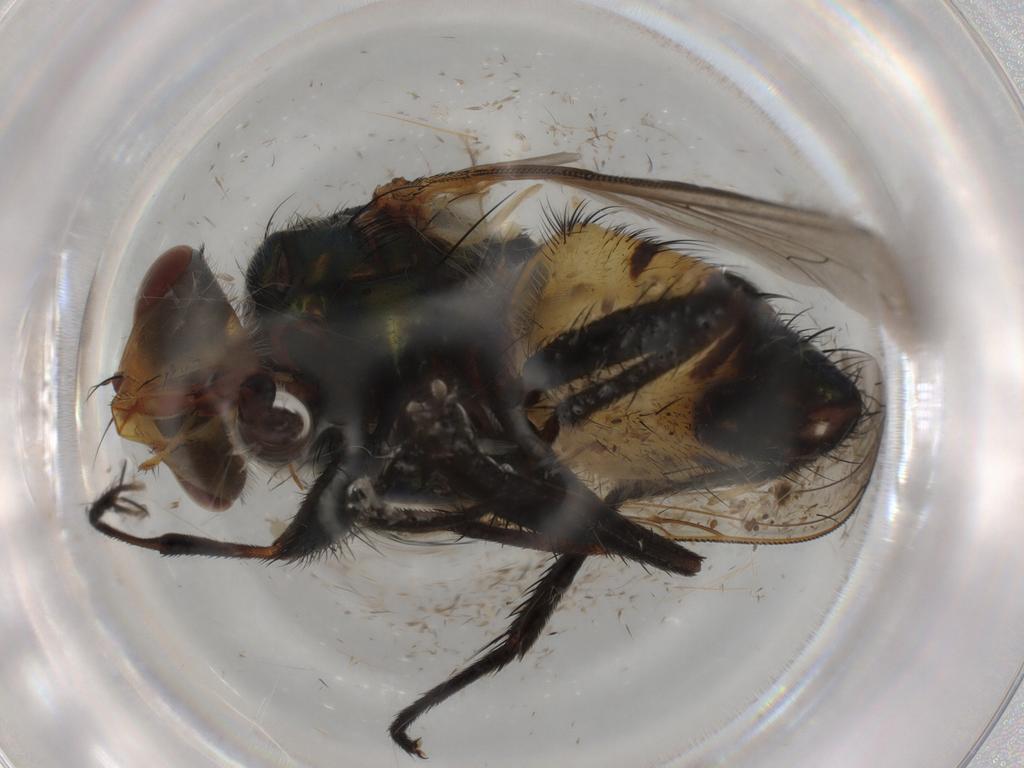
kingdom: Animalia
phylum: Arthropoda
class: Insecta
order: Diptera
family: Calliphoridae
